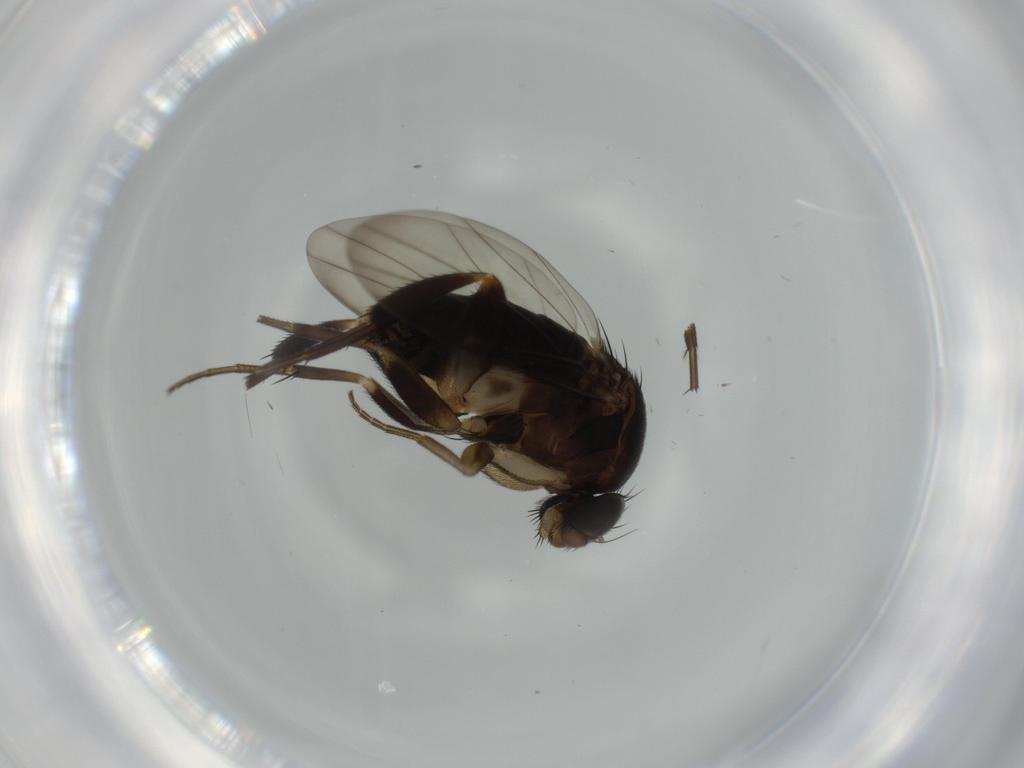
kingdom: Animalia
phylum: Arthropoda
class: Insecta
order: Diptera
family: Phoridae
